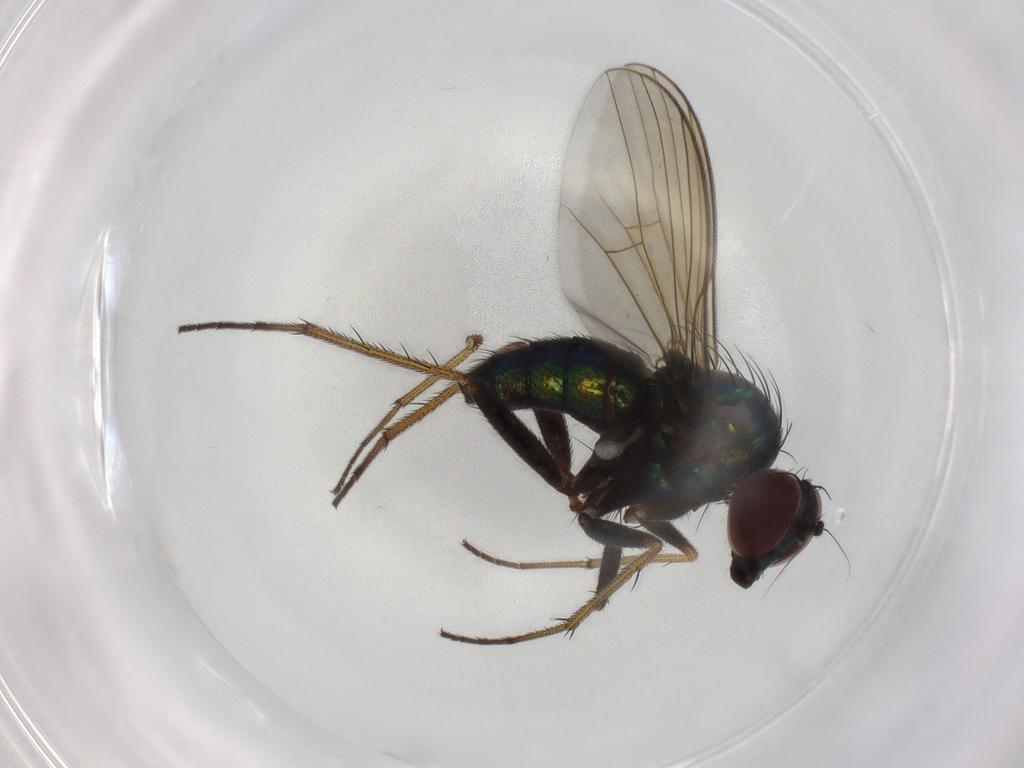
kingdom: Animalia
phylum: Arthropoda
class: Insecta
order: Diptera
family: Dolichopodidae
